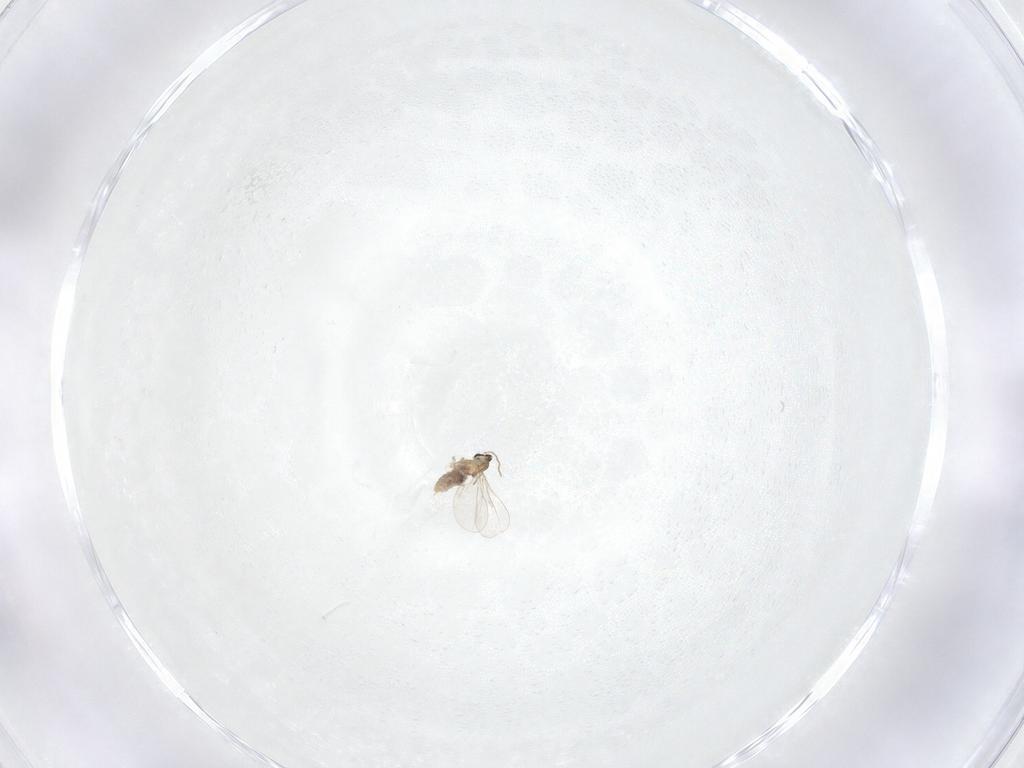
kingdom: Animalia
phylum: Arthropoda
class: Insecta
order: Diptera
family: Cecidomyiidae
